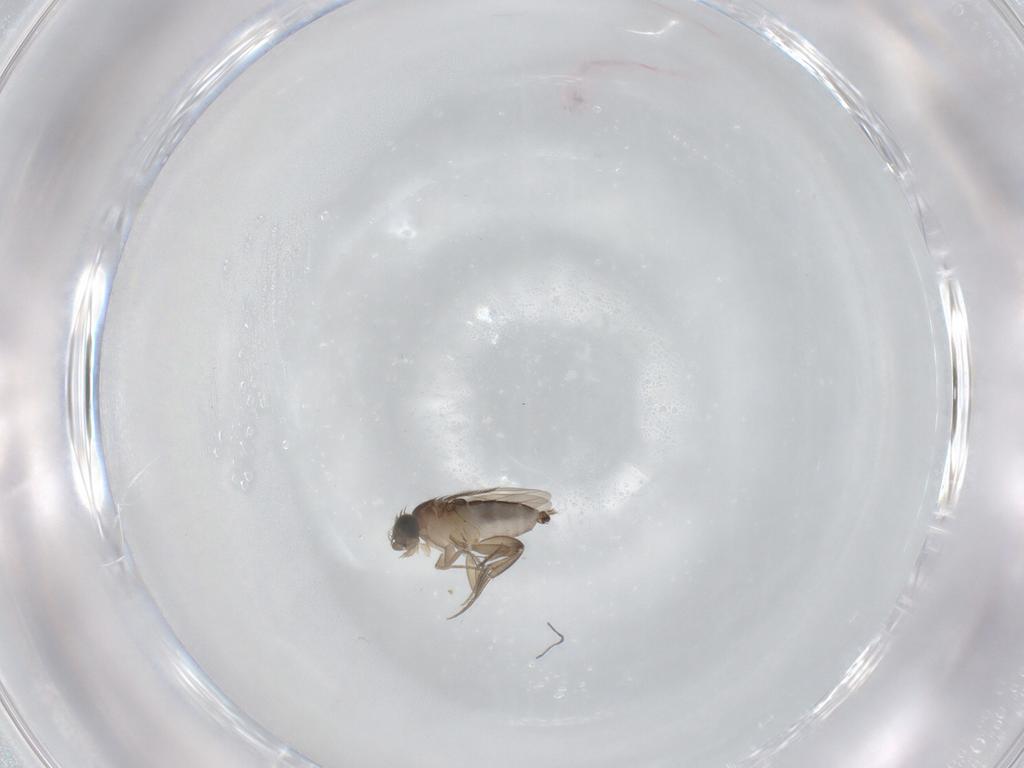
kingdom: Animalia
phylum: Arthropoda
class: Insecta
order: Diptera
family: Phoridae
